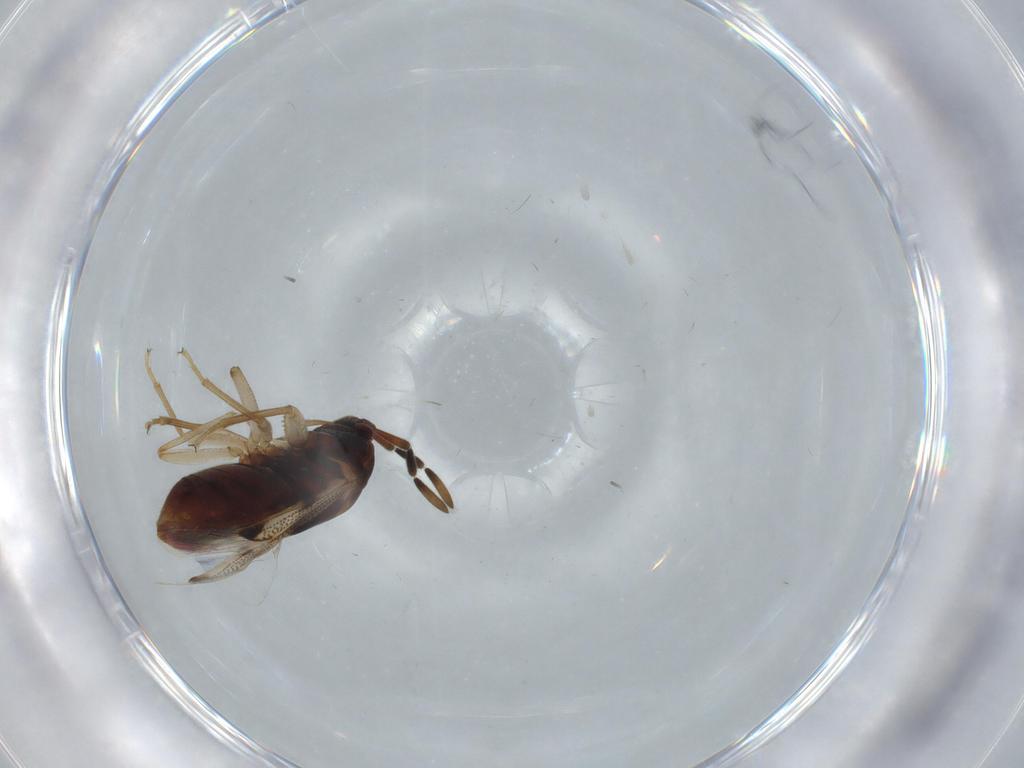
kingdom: Animalia
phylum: Arthropoda
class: Insecta
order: Hemiptera
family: Rhyparochromidae
